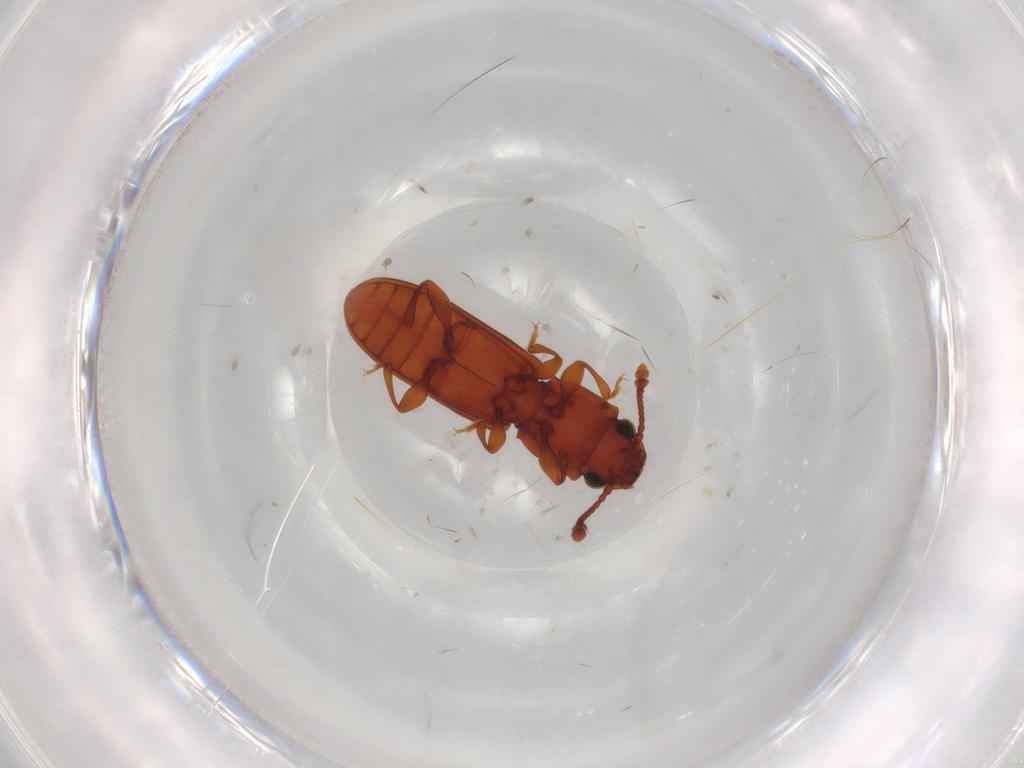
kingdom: Animalia
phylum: Arthropoda
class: Insecta
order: Coleoptera
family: Silvanidae
